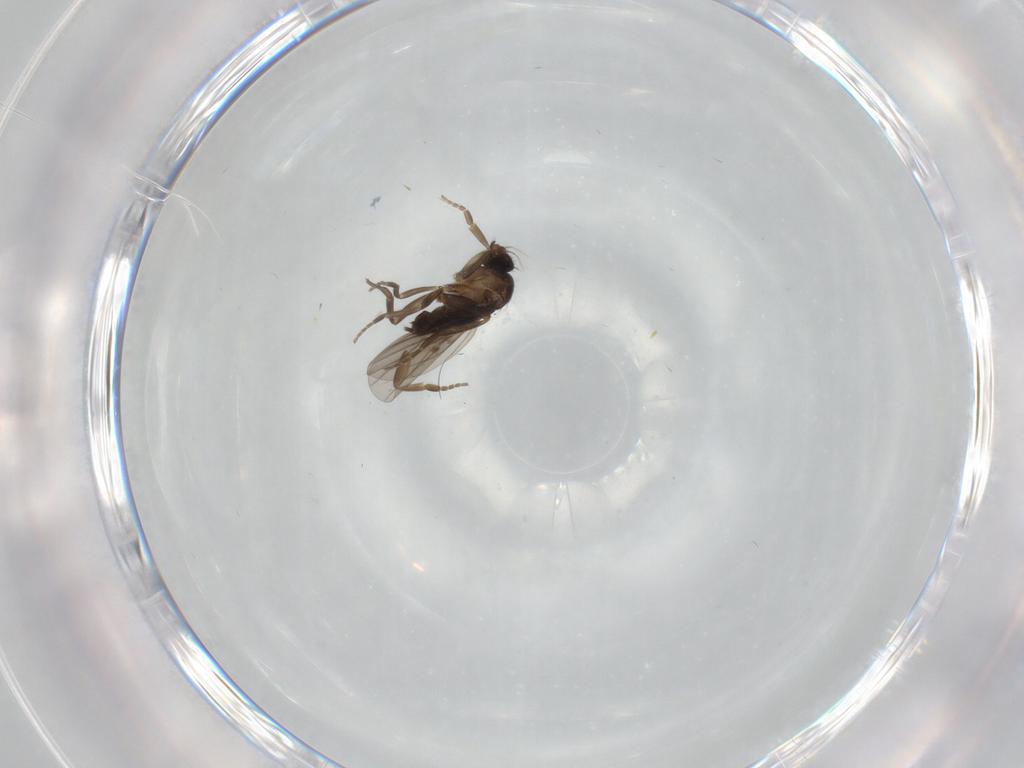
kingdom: Animalia
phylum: Arthropoda
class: Insecta
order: Diptera
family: Phoridae
